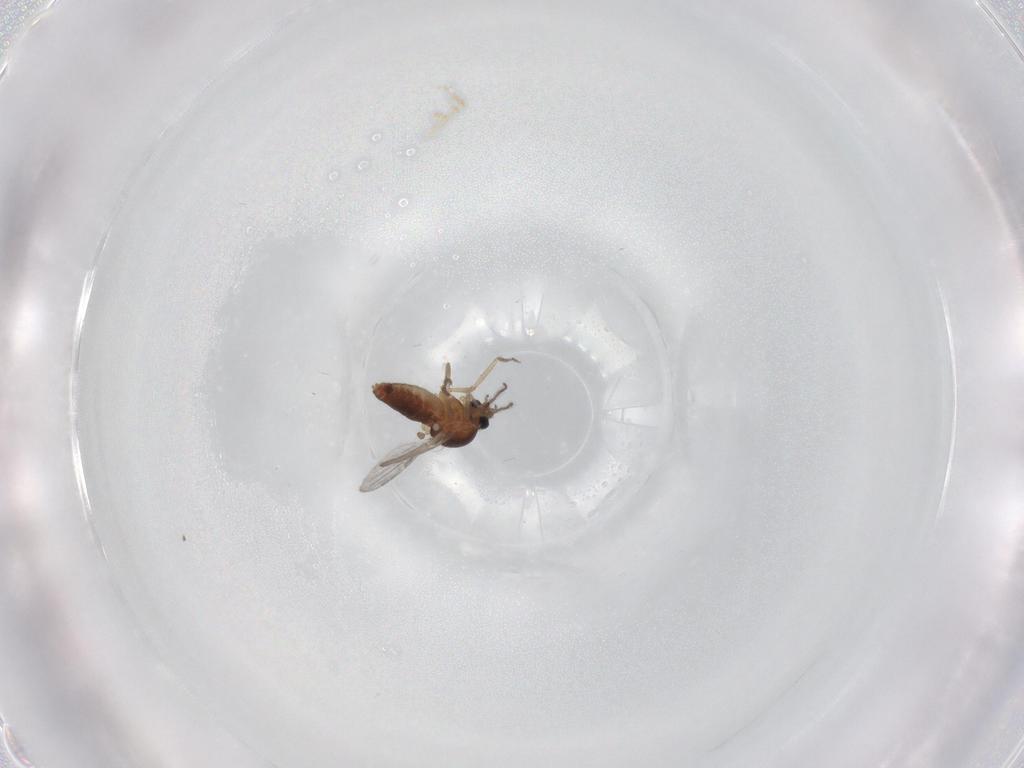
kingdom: Animalia
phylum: Arthropoda
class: Insecta
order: Diptera
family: Ceratopogonidae
